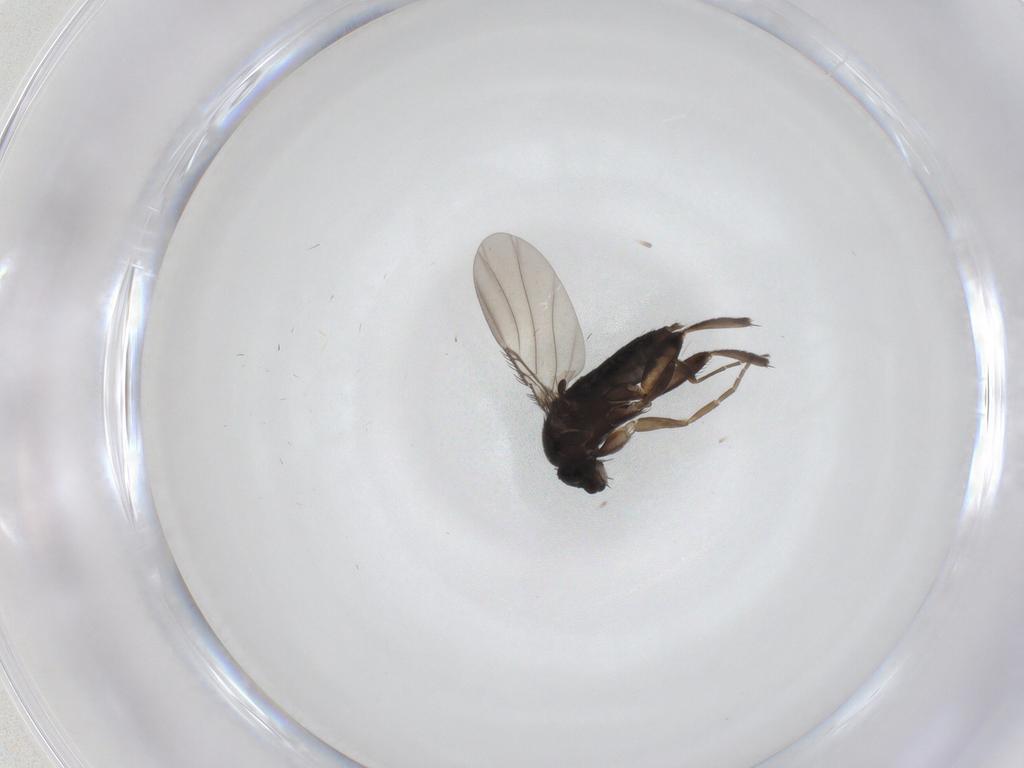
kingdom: Animalia
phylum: Arthropoda
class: Insecta
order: Diptera
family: Phoridae
